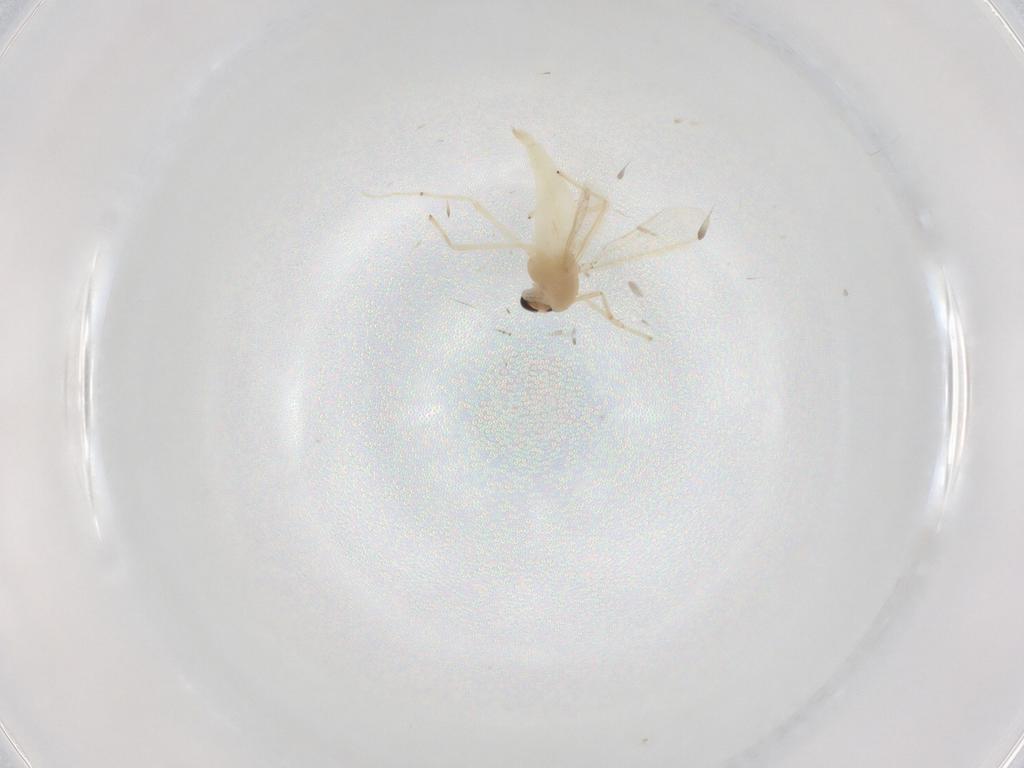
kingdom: Animalia
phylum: Arthropoda
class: Insecta
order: Diptera
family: Chironomidae
